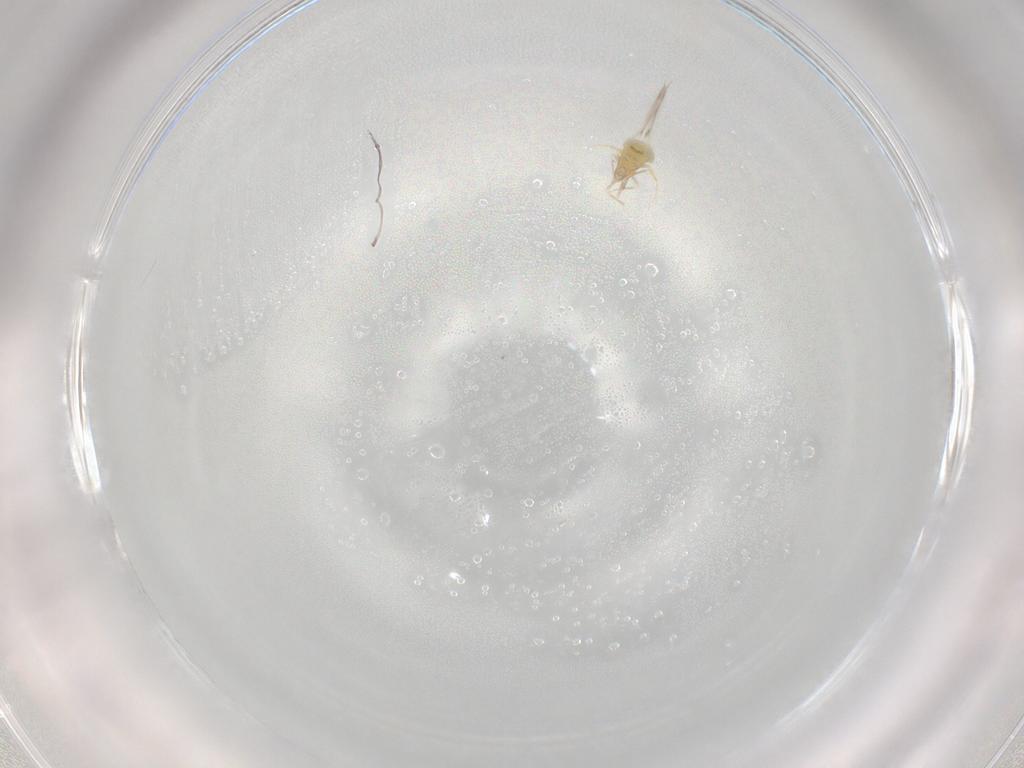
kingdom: Animalia
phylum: Arthropoda
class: Insecta
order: Hemiptera
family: Aleyrodidae
